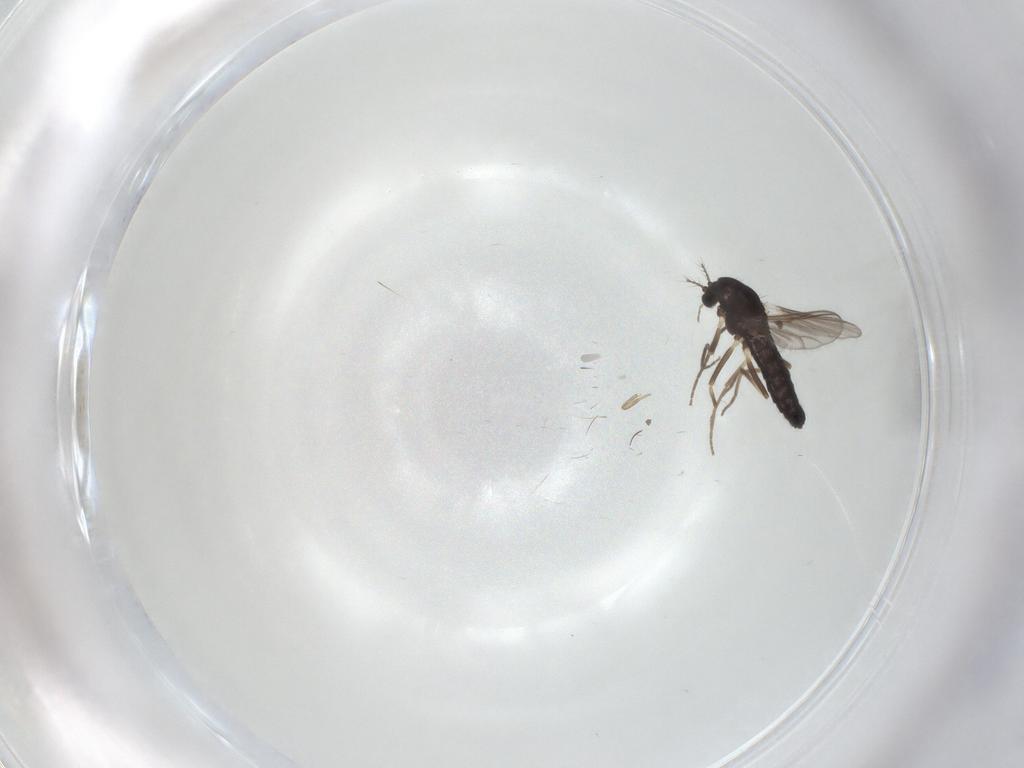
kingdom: Animalia
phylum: Arthropoda
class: Insecta
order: Diptera
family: Chironomidae
